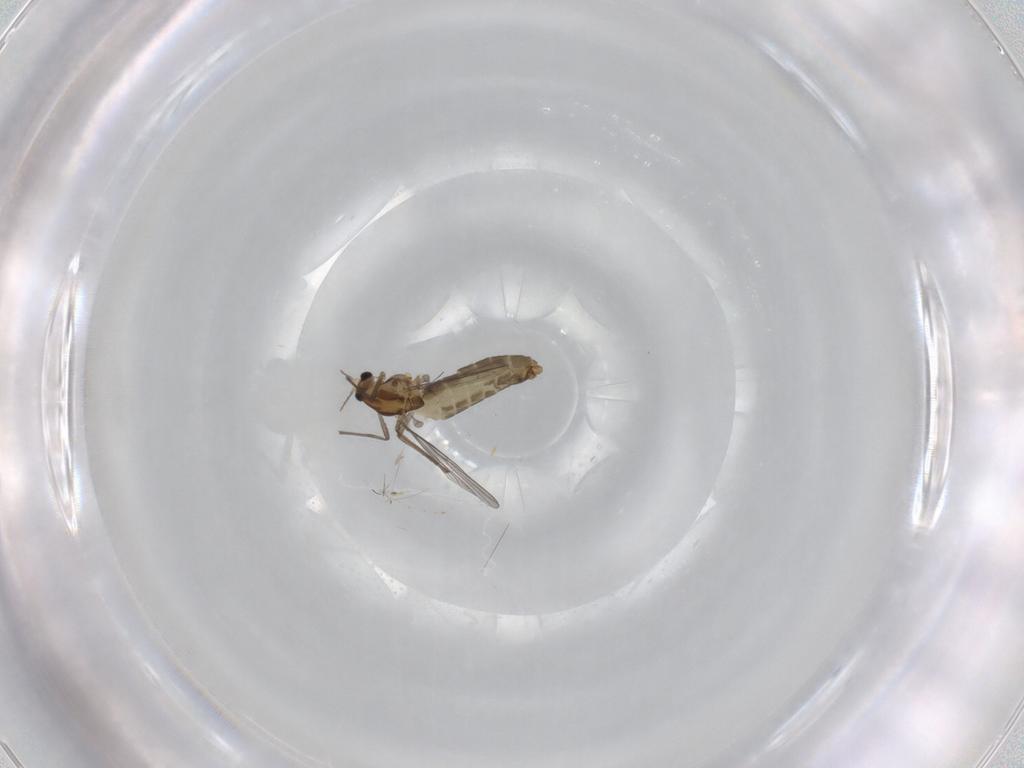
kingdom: Animalia
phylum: Arthropoda
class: Insecta
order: Diptera
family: Chironomidae
